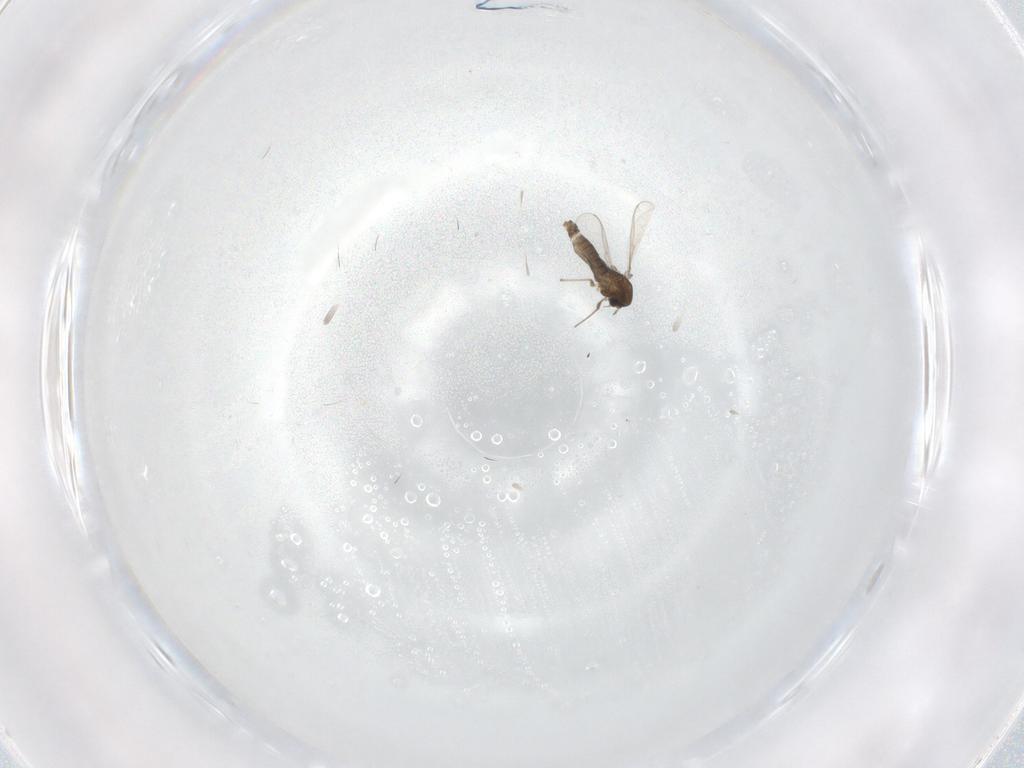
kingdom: Animalia
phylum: Arthropoda
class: Insecta
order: Diptera
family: Chironomidae
